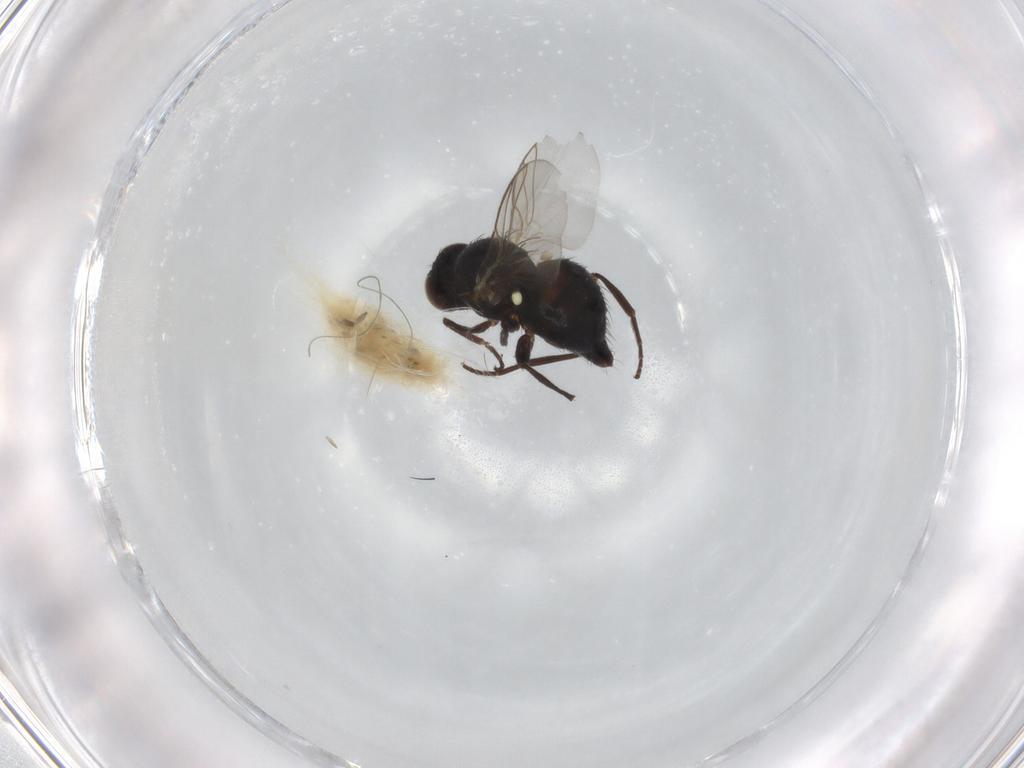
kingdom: Animalia
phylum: Arthropoda
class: Insecta
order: Diptera
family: Agromyzidae
